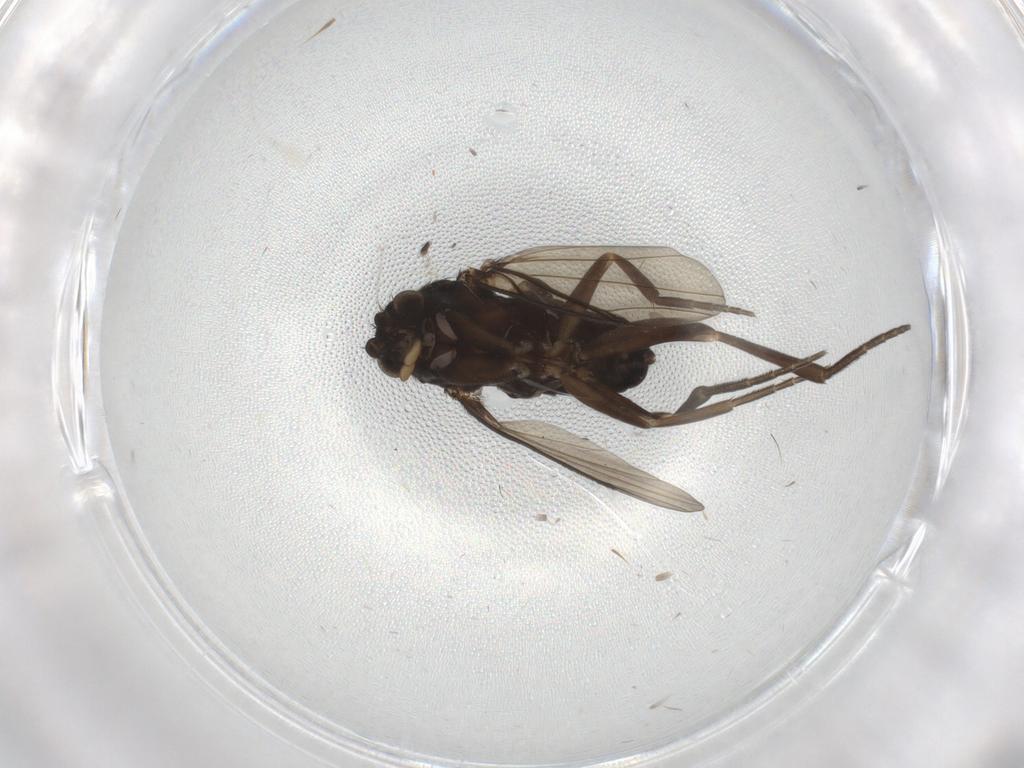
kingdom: Animalia
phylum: Arthropoda
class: Insecta
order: Diptera
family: Phoridae
